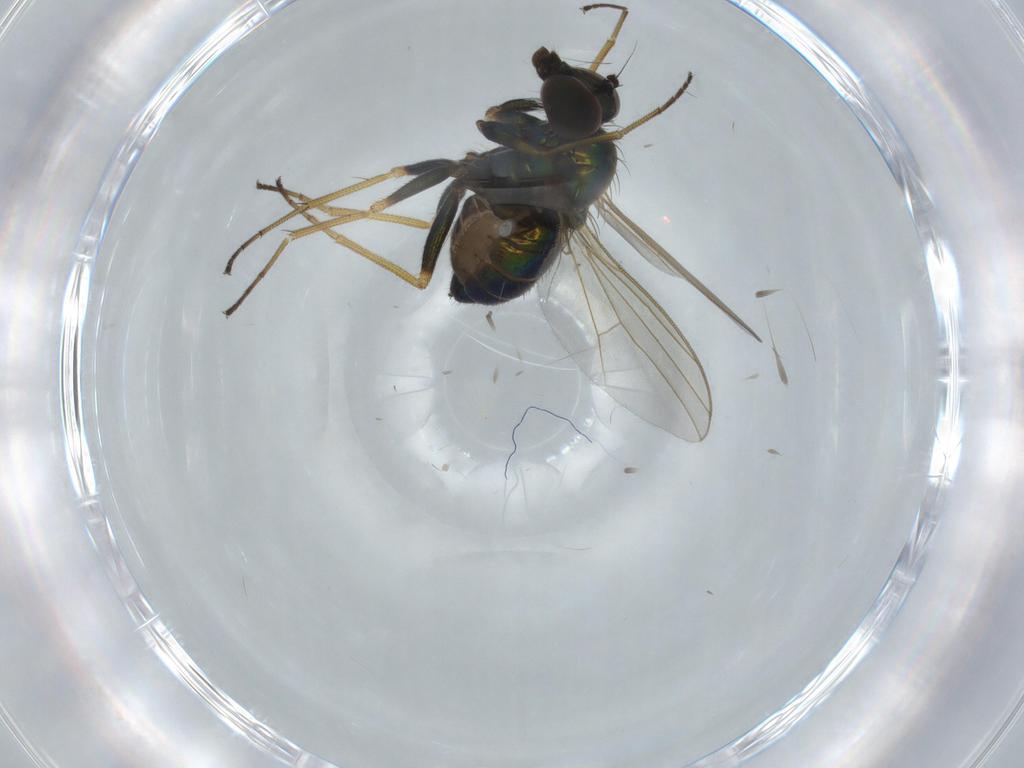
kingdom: Animalia
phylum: Arthropoda
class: Insecta
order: Diptera
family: Dolichopodidae
